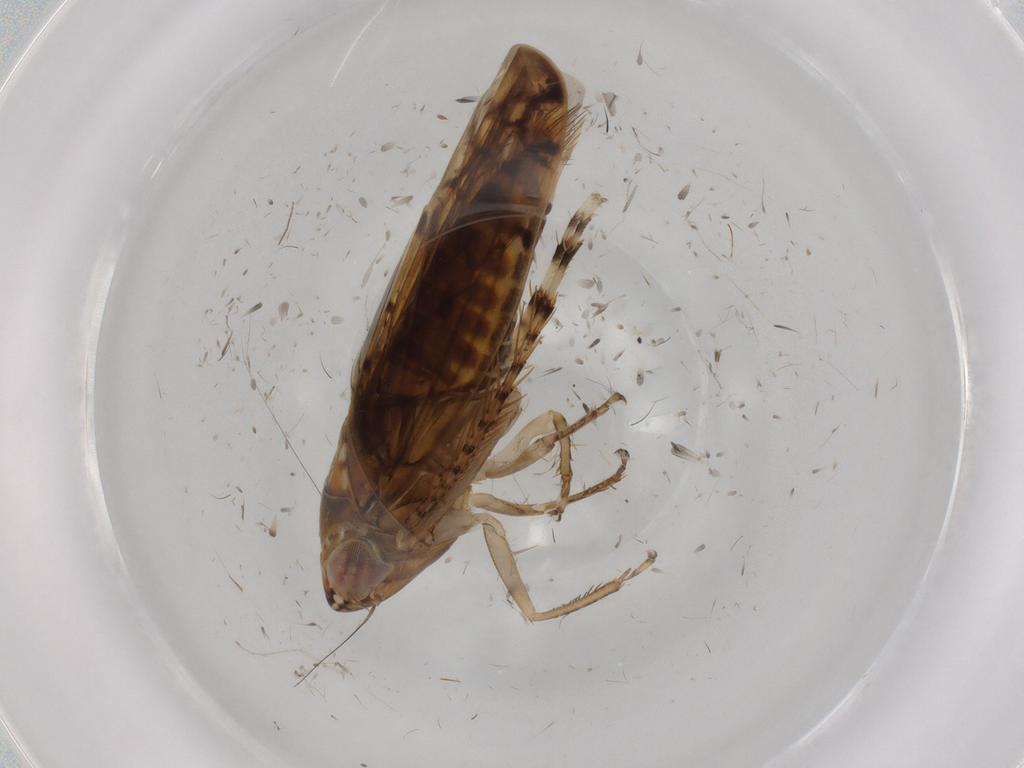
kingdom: Animalia
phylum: Arthropoda
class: Insecta
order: Hemiptera
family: Cicadellidae
